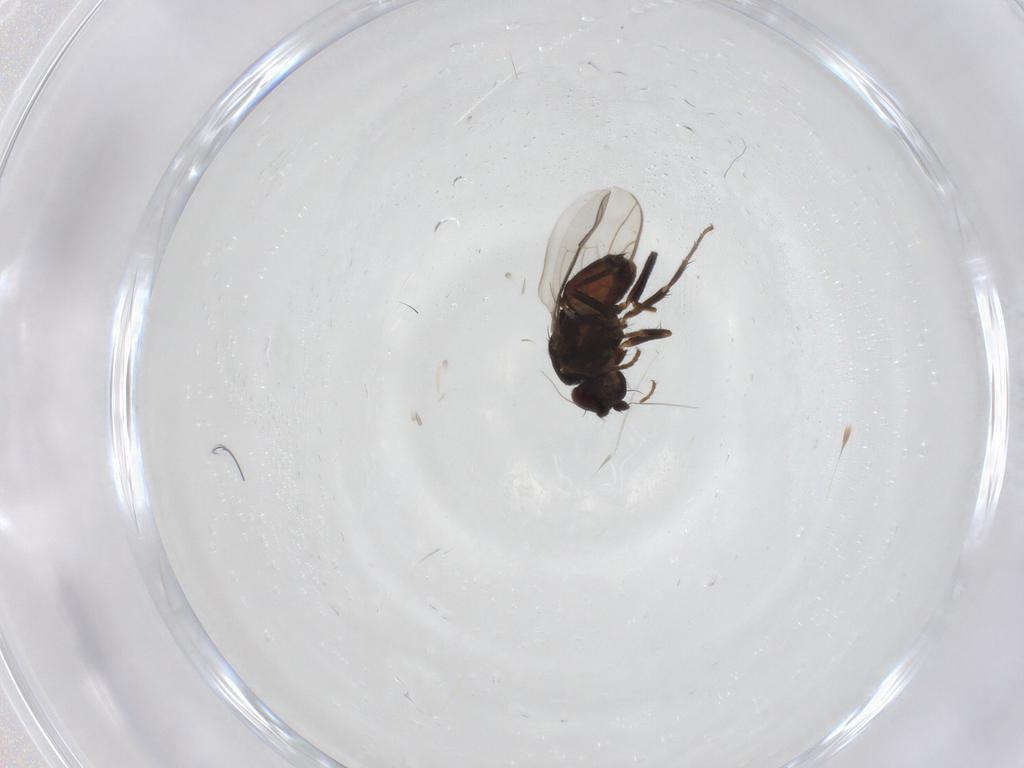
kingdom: Animalia
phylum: Arthropoda
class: Insecta
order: Diptera
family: Sphaeroceridae
